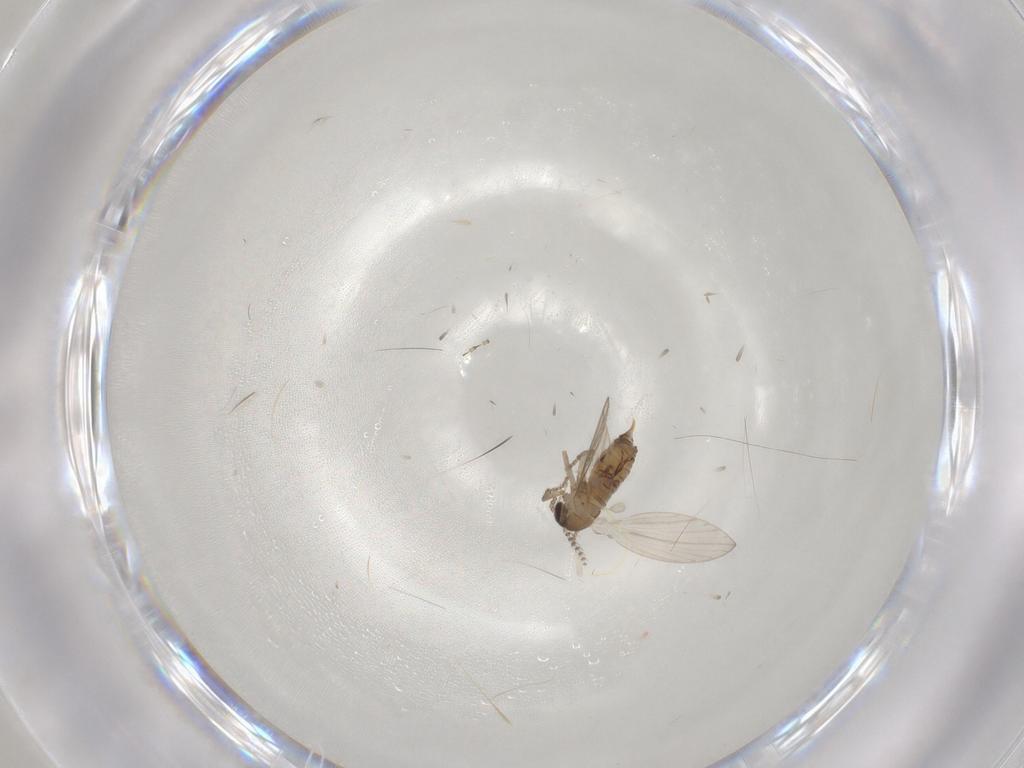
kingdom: Animalia
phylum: Arthropoda
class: Insecta
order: Diptera
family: Cecidomyiidae
